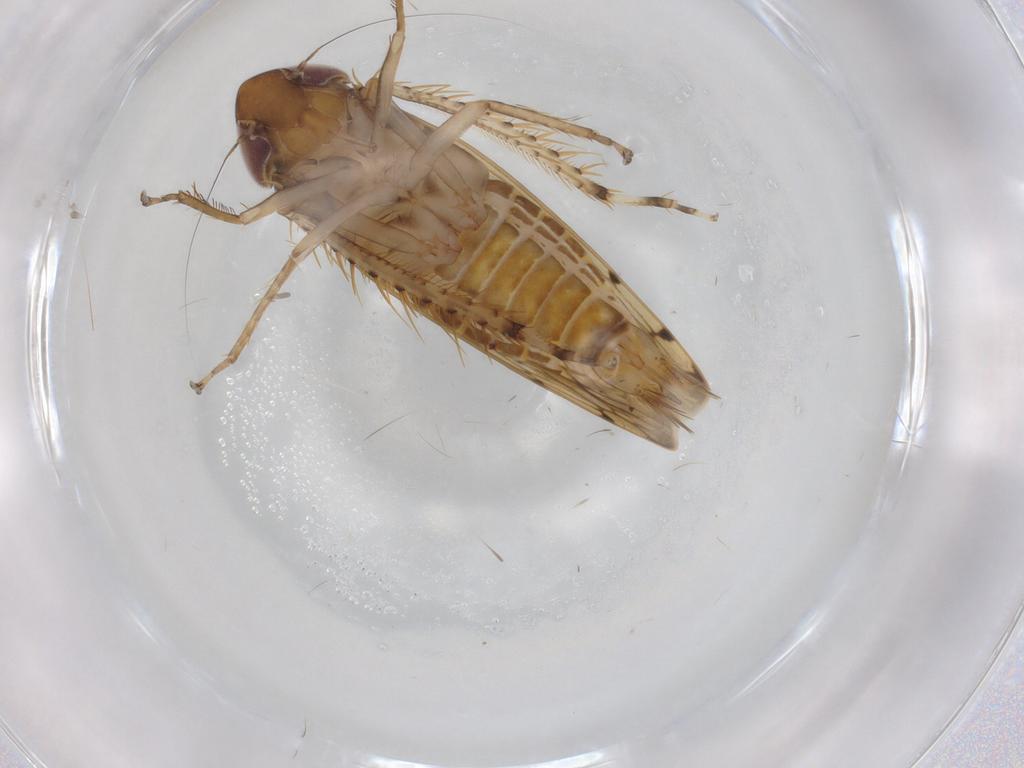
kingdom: Animalia
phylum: Arthropoda
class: Insecta
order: Hemiptera
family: Cicadellidae
